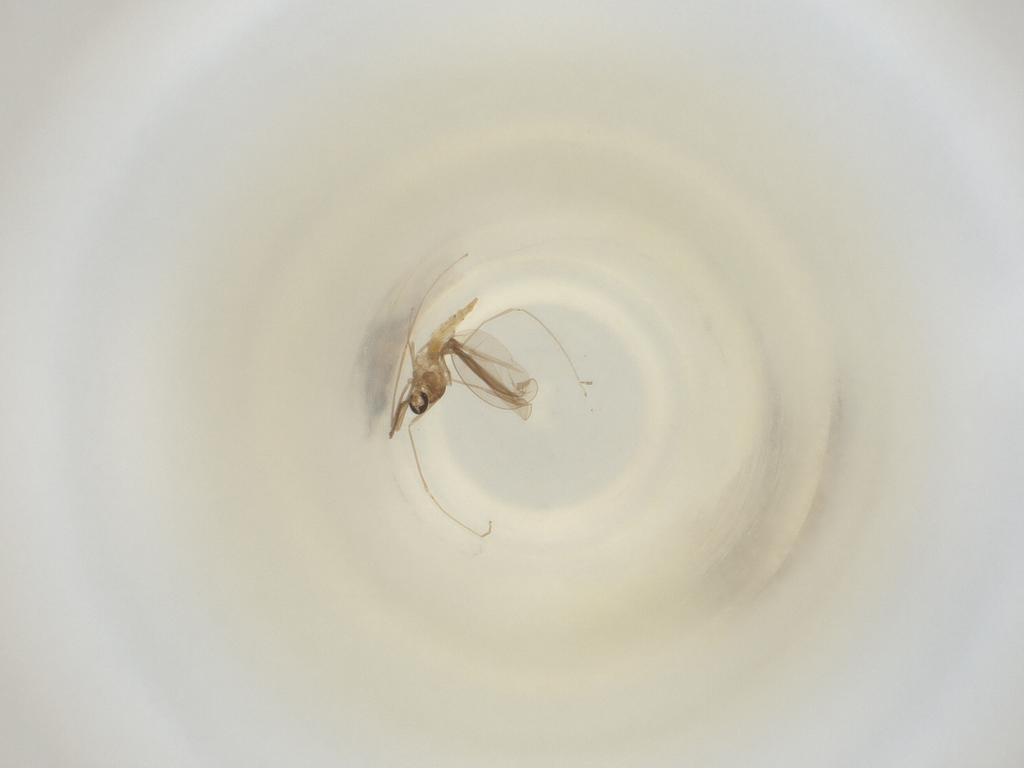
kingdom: Animalia
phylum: Arthropoda
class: Insecta
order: Diptera
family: Cecidomyiidae
